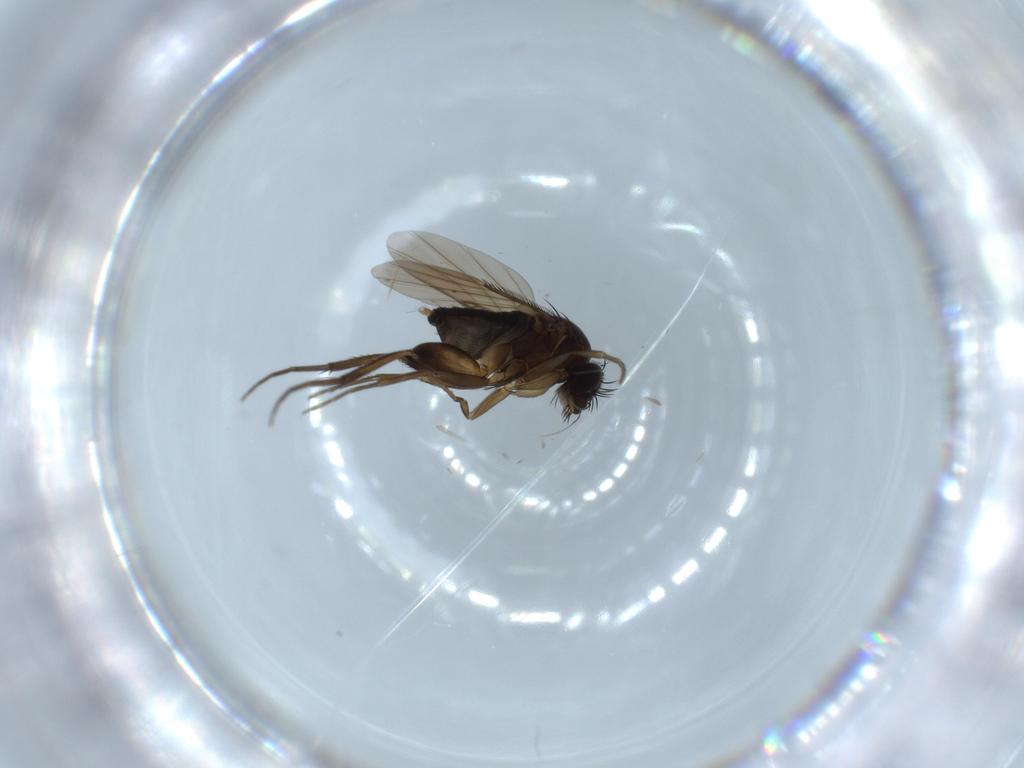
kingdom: Animalia
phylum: Arthropoda
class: Insecta
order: Diptera
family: Phoridae
